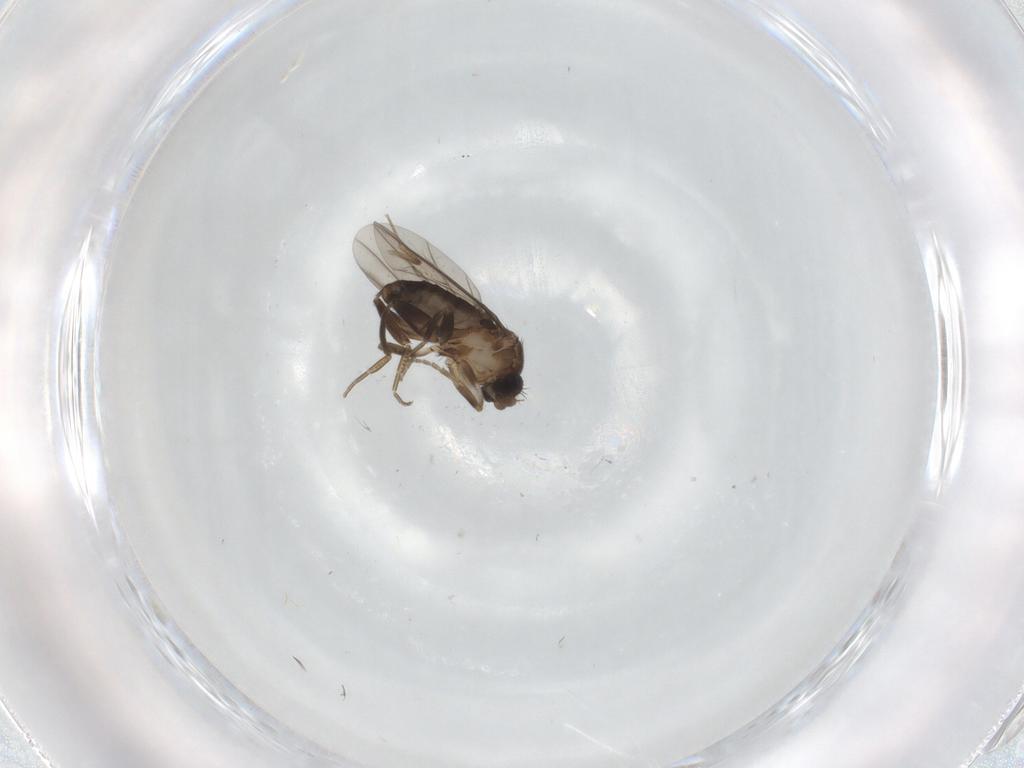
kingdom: Animalia
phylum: Arthropoda
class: Insecta
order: Diptera
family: Phoridae
